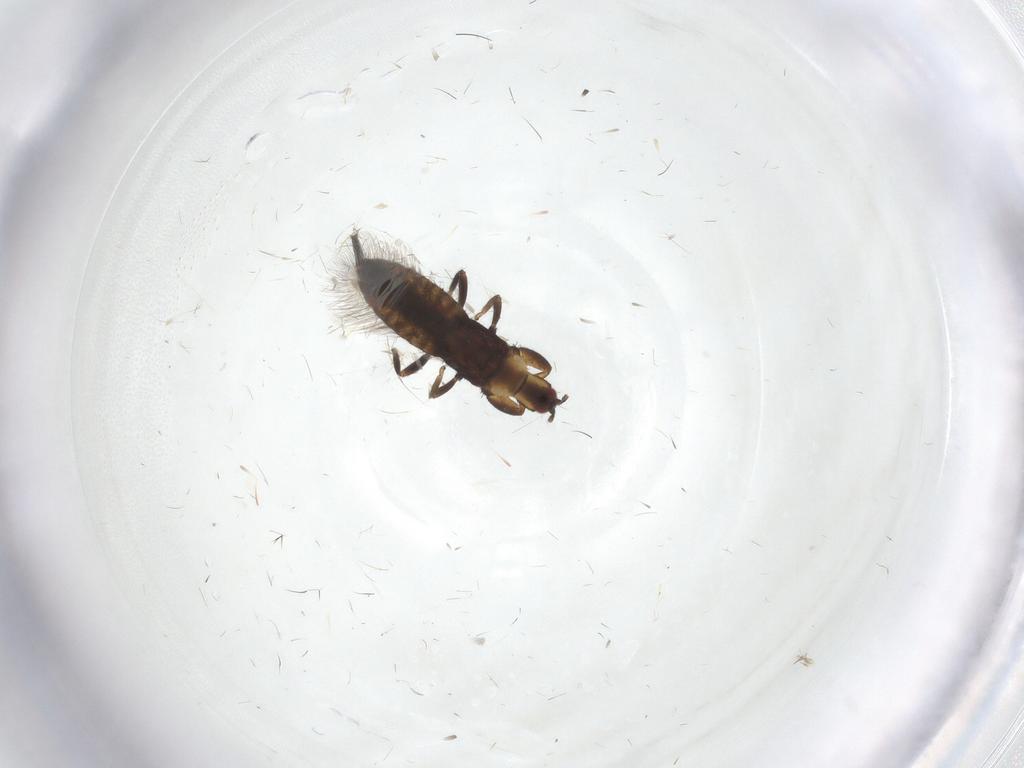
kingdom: Animalia
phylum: Arthropoda
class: Insecta
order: Thysanoptera
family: Phlaeothripidae
